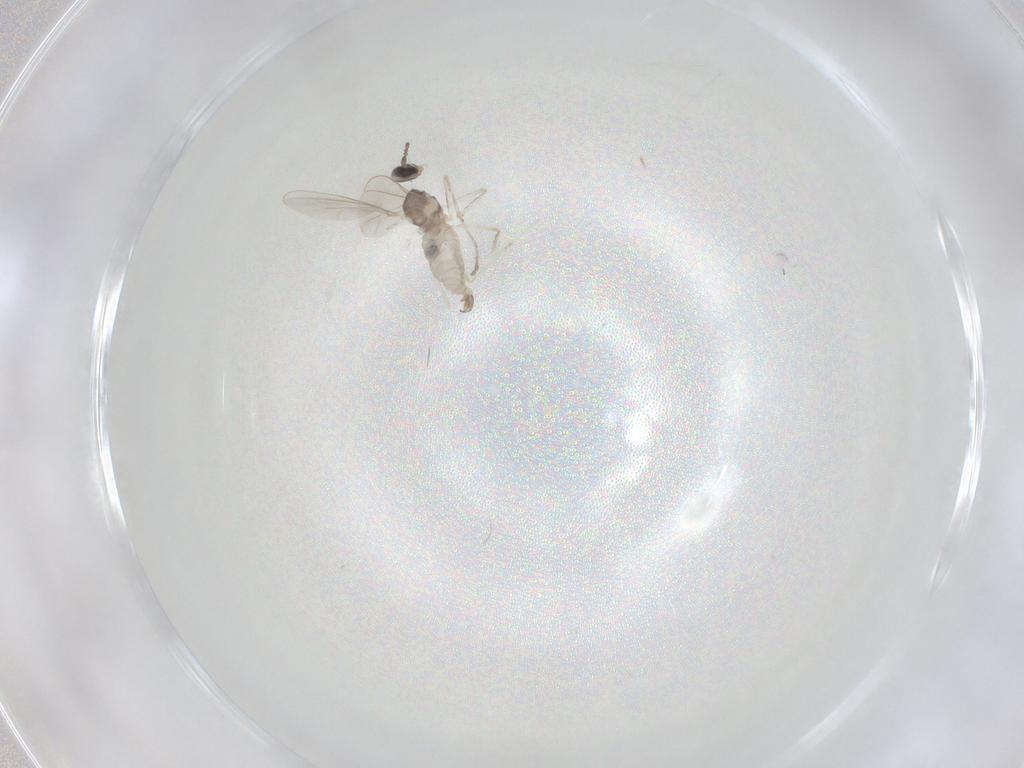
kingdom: Animalia
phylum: Arthropoda
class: Insecta
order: Diptera
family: Cecidomyiidae
